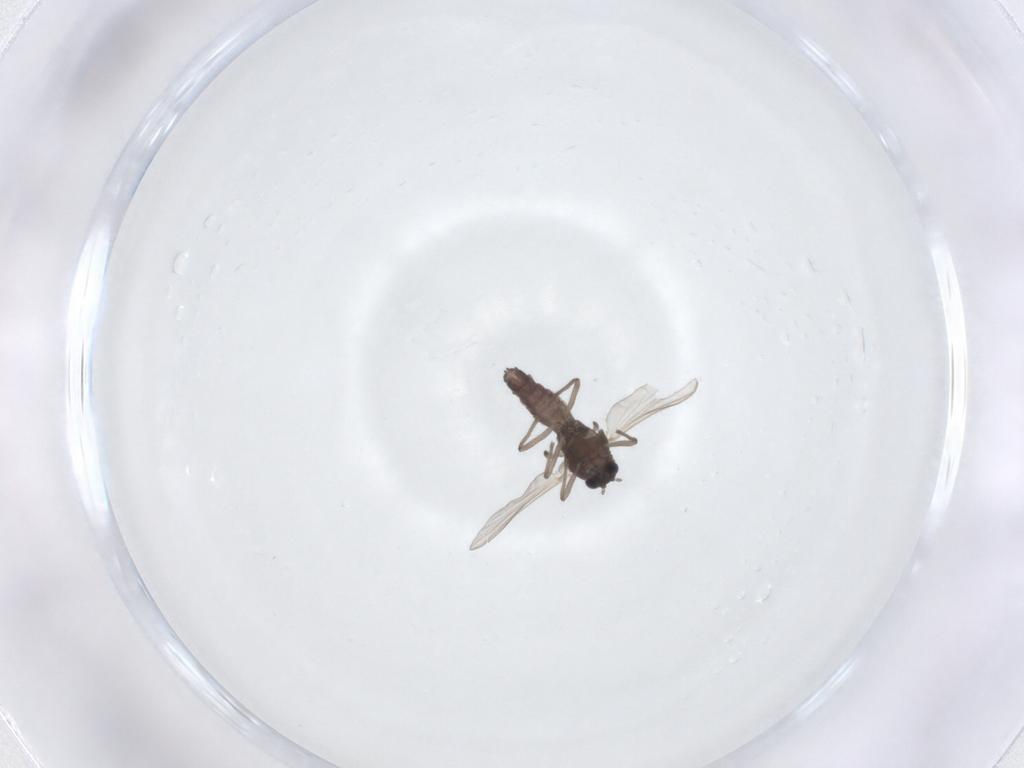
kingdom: Animalia
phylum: Arthropoda
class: Insecta
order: Diptera
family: Chironomidae
